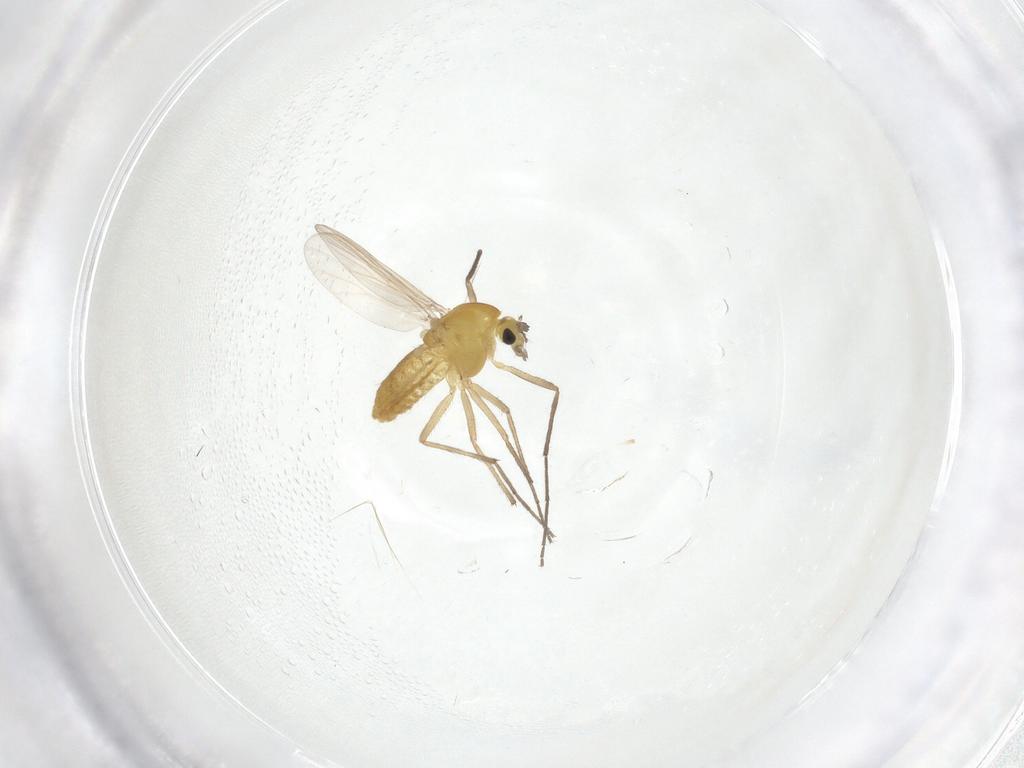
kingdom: Animalia
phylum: Arthropoda
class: Insecta
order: Diptera
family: Chironomidae
